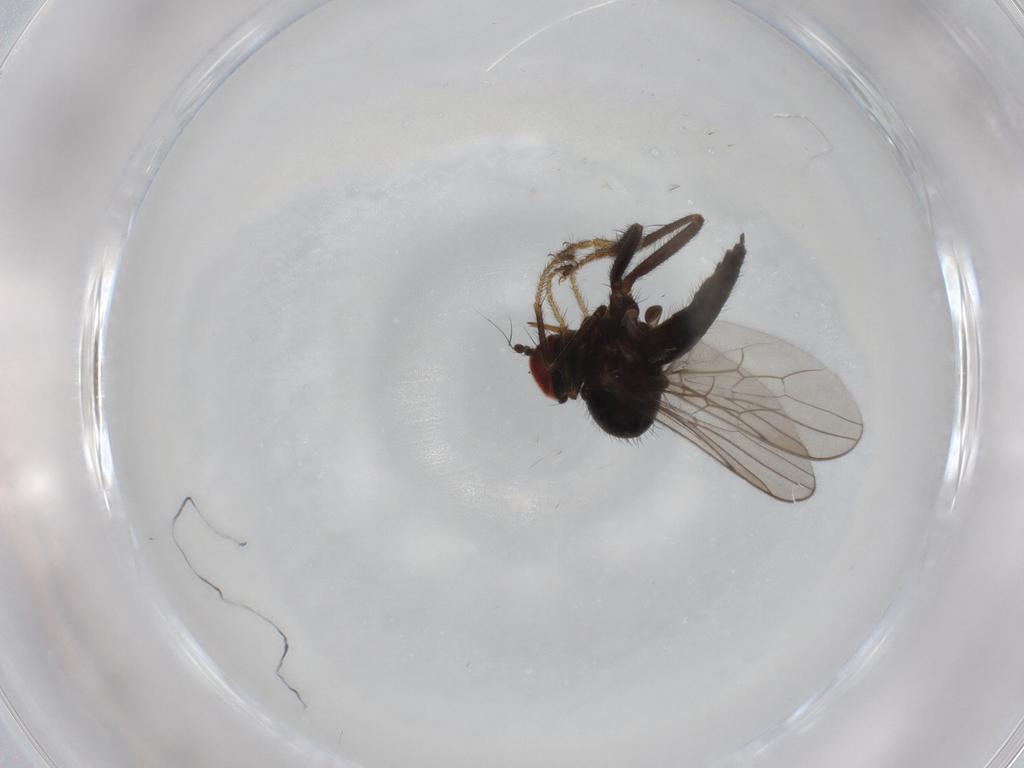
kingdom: Animalia
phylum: Arthropoda
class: Insecta
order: Diptera
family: Hybotidae
